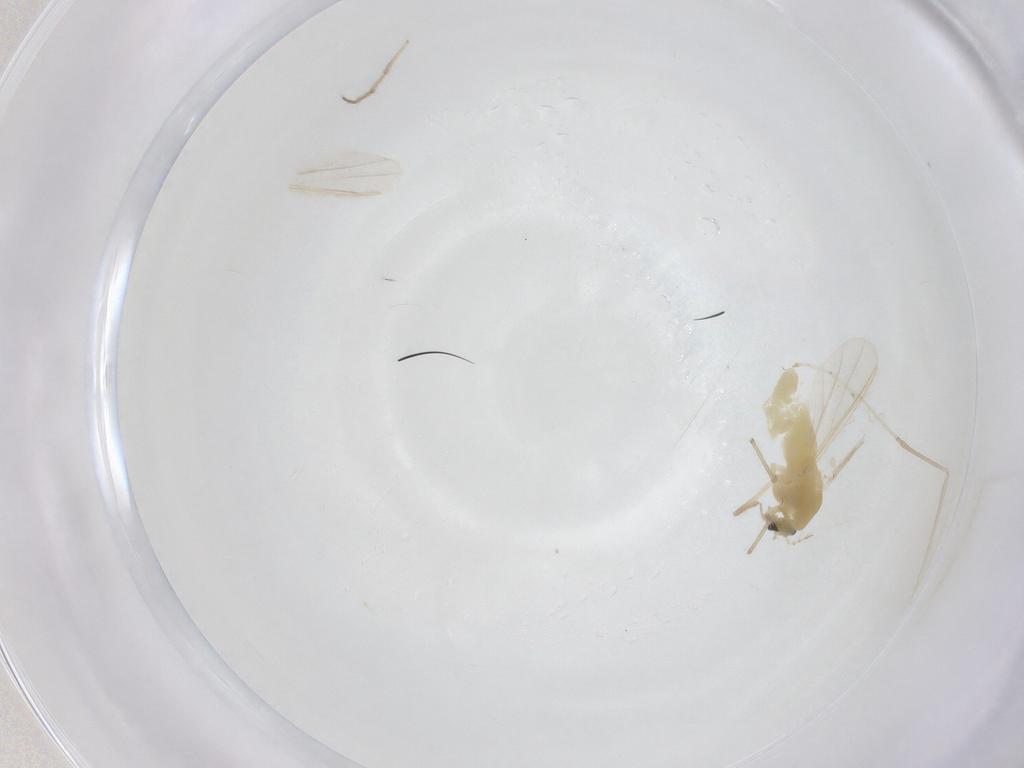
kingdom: Animalia
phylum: Arthropoda
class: Insecta
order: Diptera
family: Chironomidae
